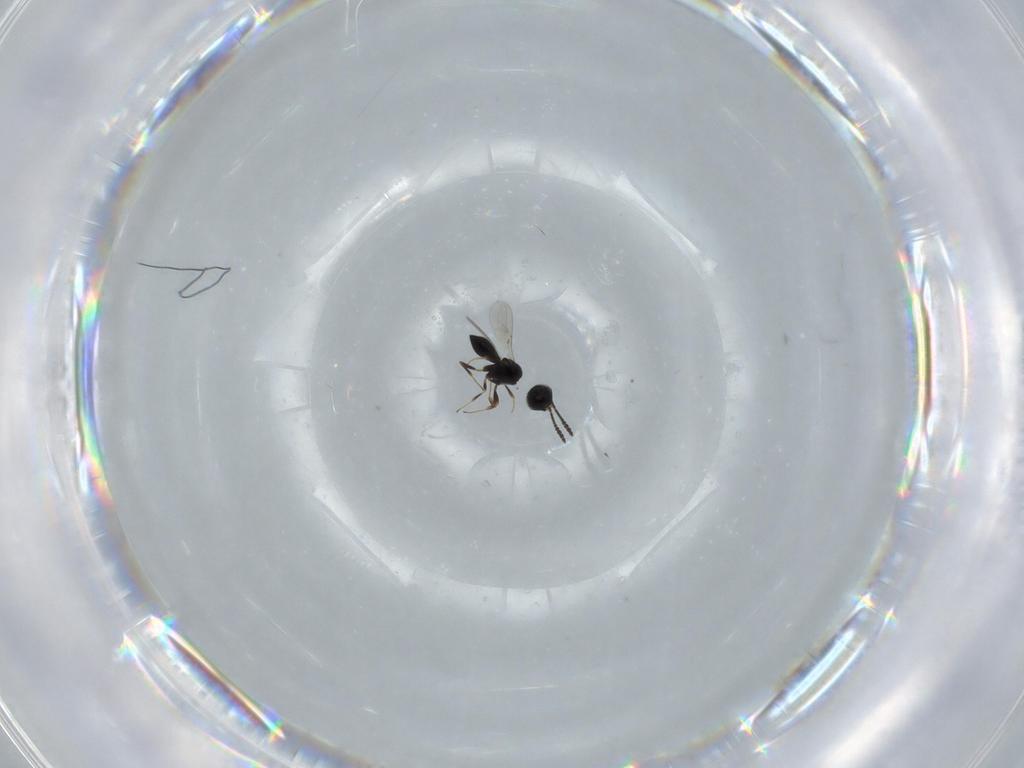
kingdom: Animalia
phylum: Arthropoda
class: Insecta
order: Hymenoptera
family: Scelionidae
